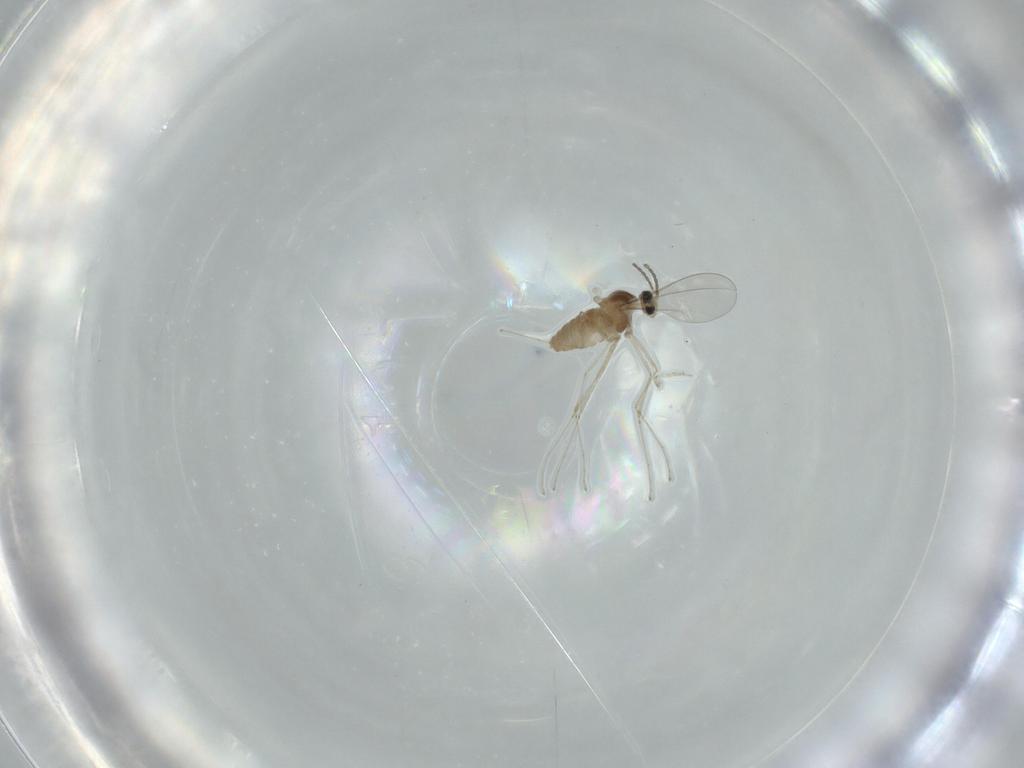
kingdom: Animalia
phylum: Arthropoda
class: Insecta
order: Diptera
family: Cecidomyiidae
